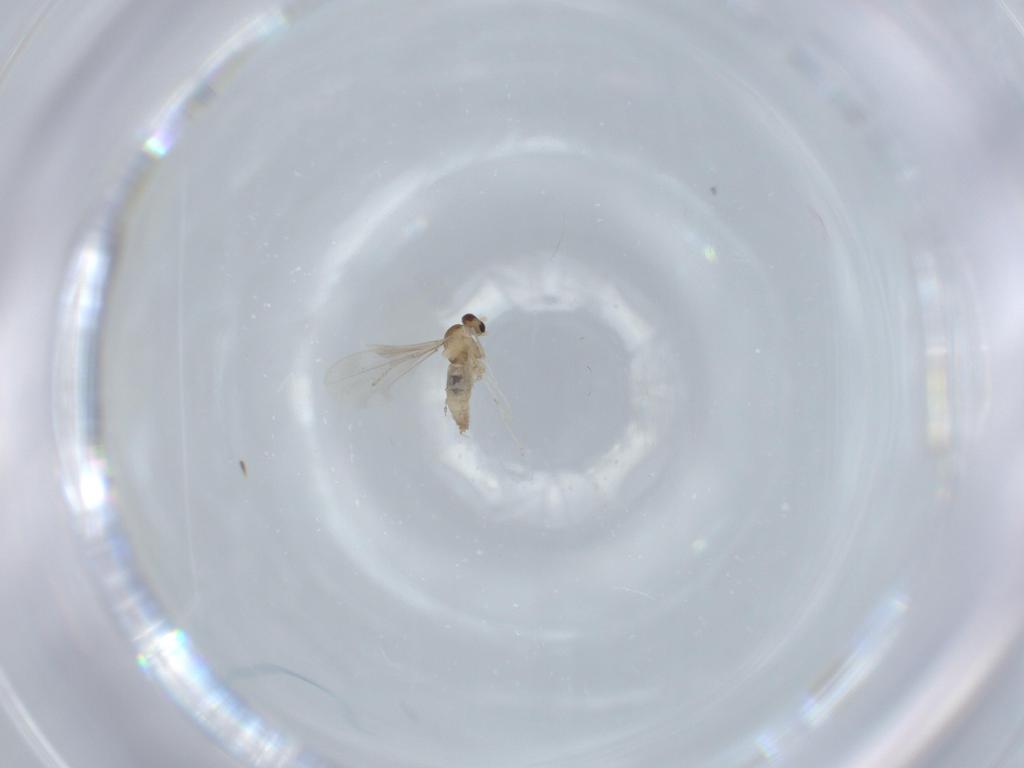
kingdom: Animalia
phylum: Arthropoda
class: Insecta
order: Diptera
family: Cecidomyiidae
